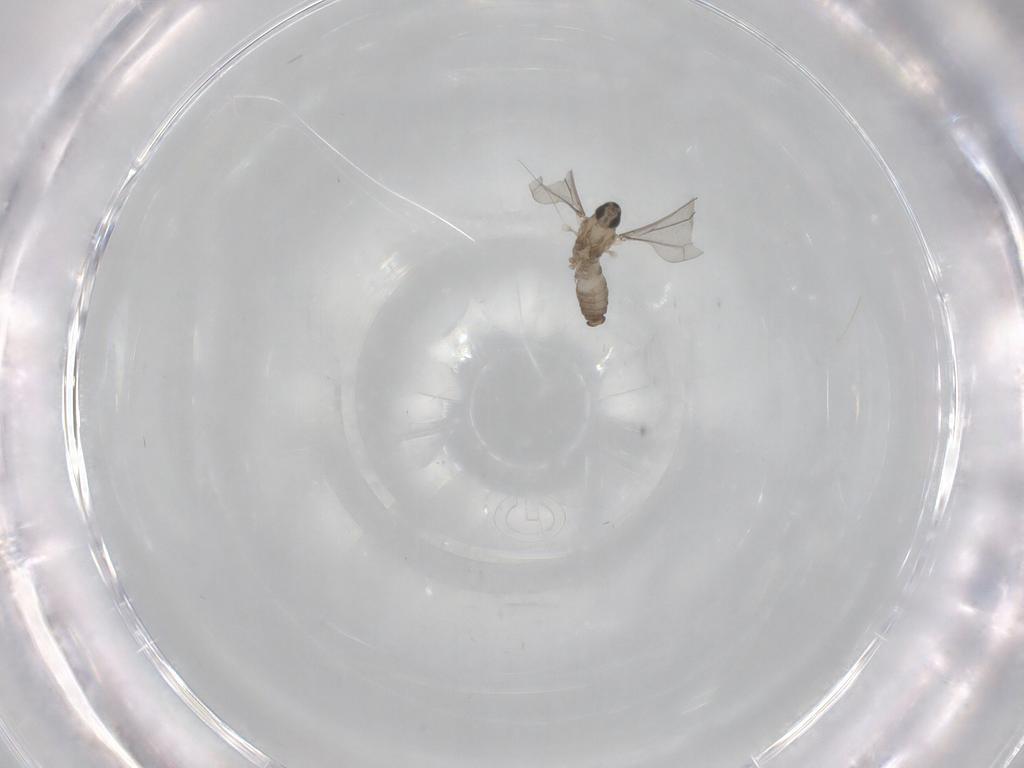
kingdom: Animalia
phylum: Arthropoda
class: Insecta
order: Diptera
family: Cecidomyiidae
